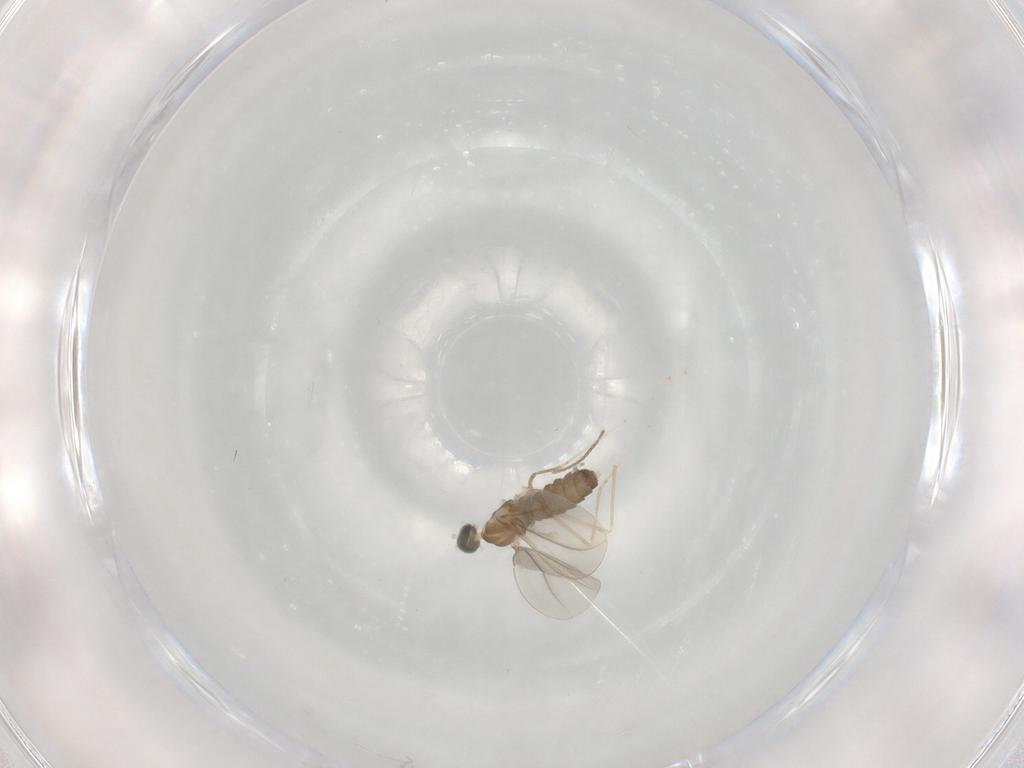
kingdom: Animalia
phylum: Arthropoda
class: Insecta
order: Diptera
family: Cecidomyiidae
